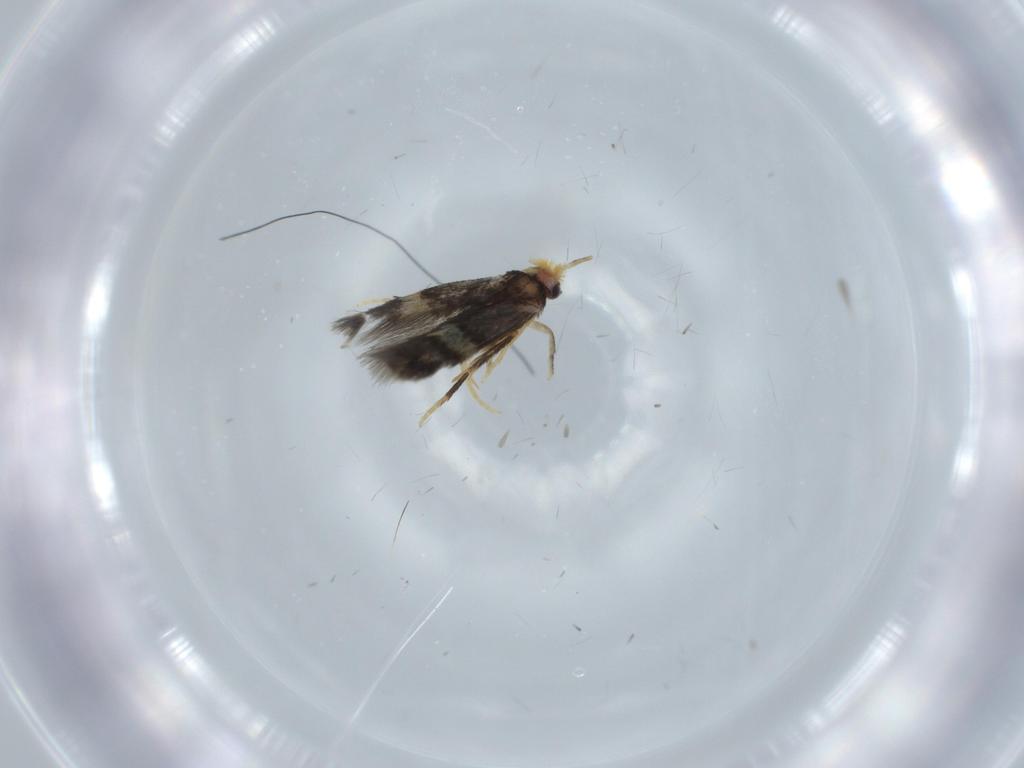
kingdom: Animalia
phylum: Arthropoda
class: Insecta
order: Lepidoptera
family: Nepticulidae
